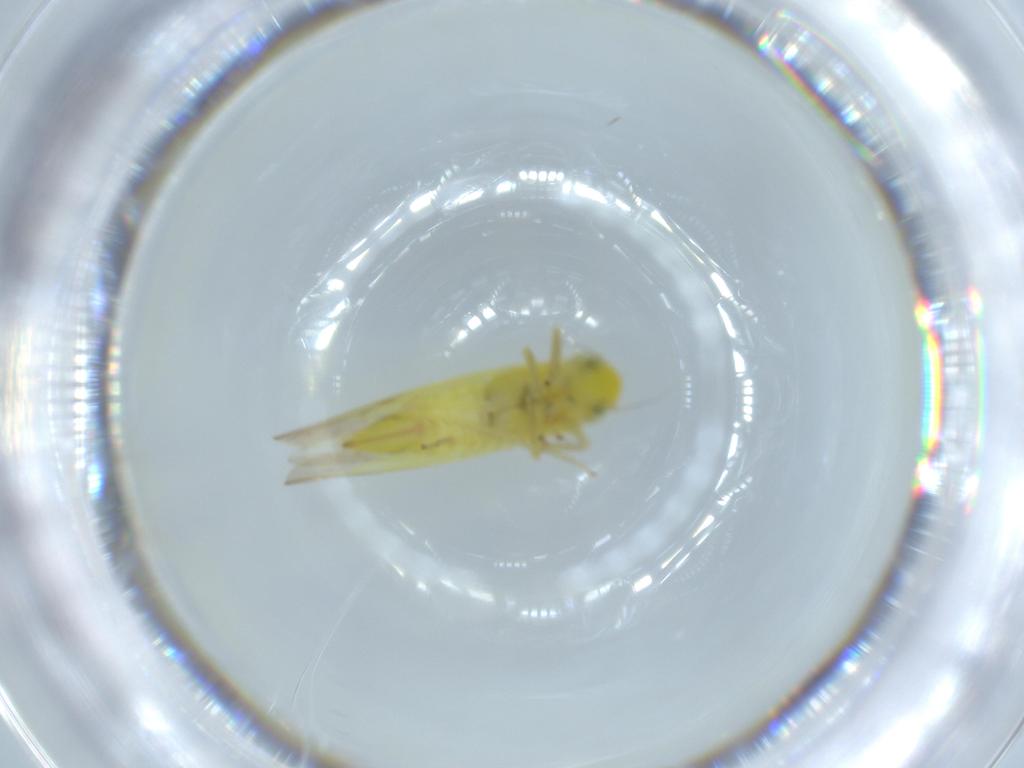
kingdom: Animalia
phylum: Arthropoda
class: Insecta
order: Hemiptera
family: Cicadellidae
